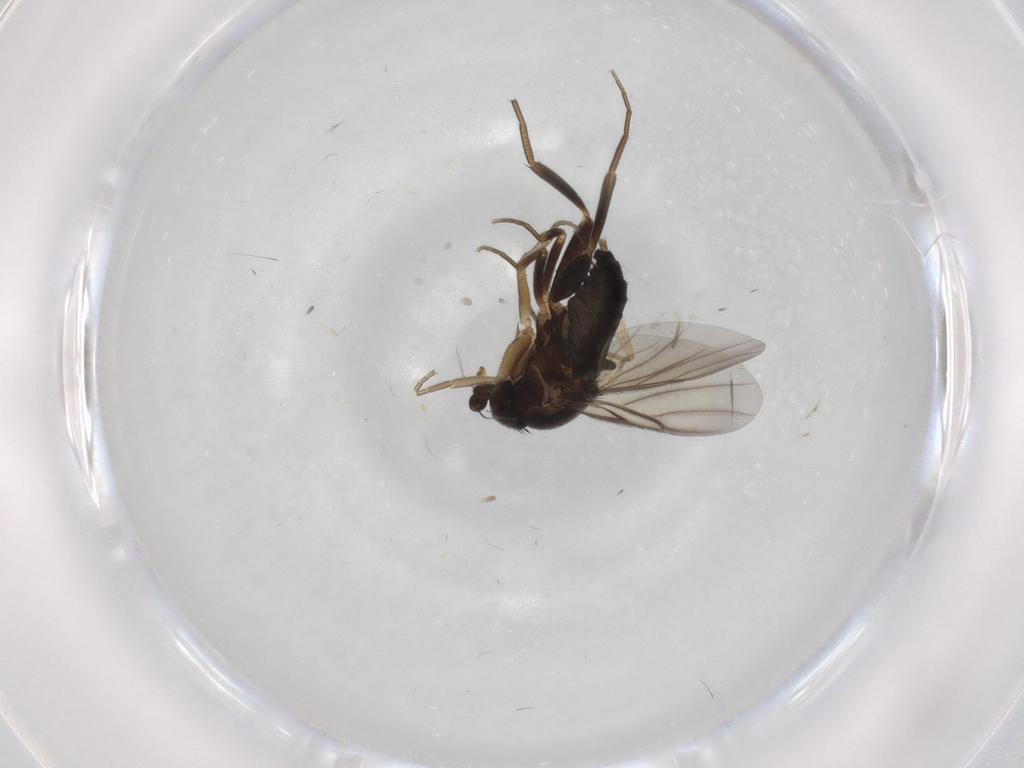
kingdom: Animalia
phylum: Arthropoda
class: Insecta
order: Diptera
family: Sciaridae
